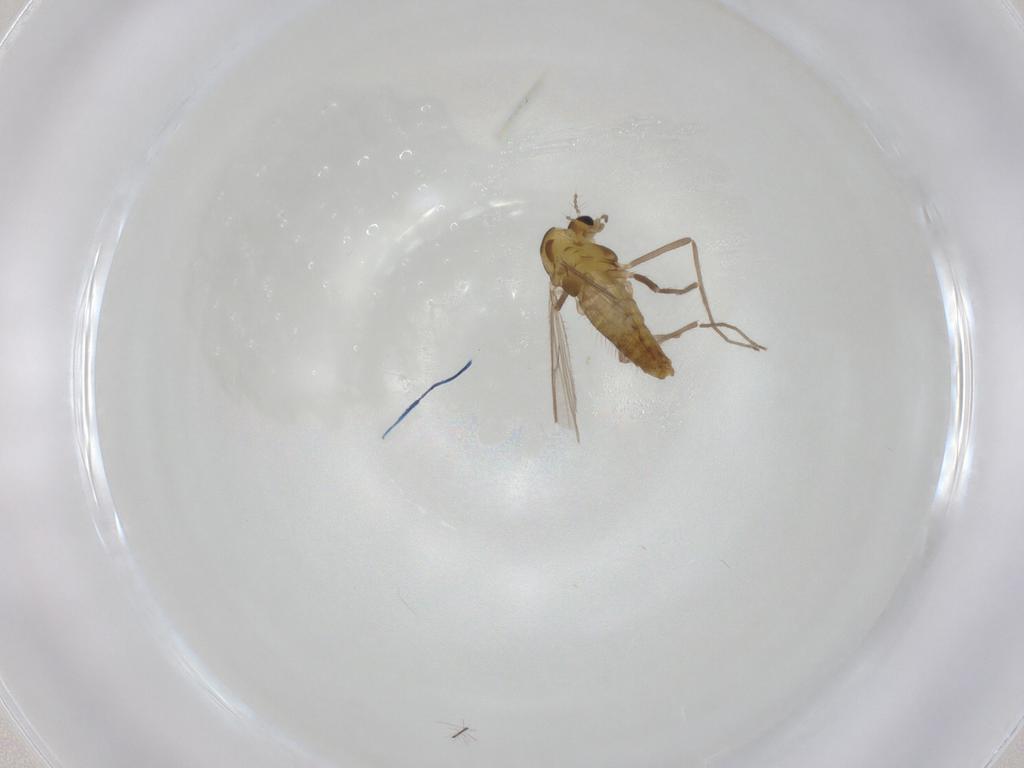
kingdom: Animalia
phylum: Arthropoda
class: Insecta
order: Diptera
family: Chironomidae
